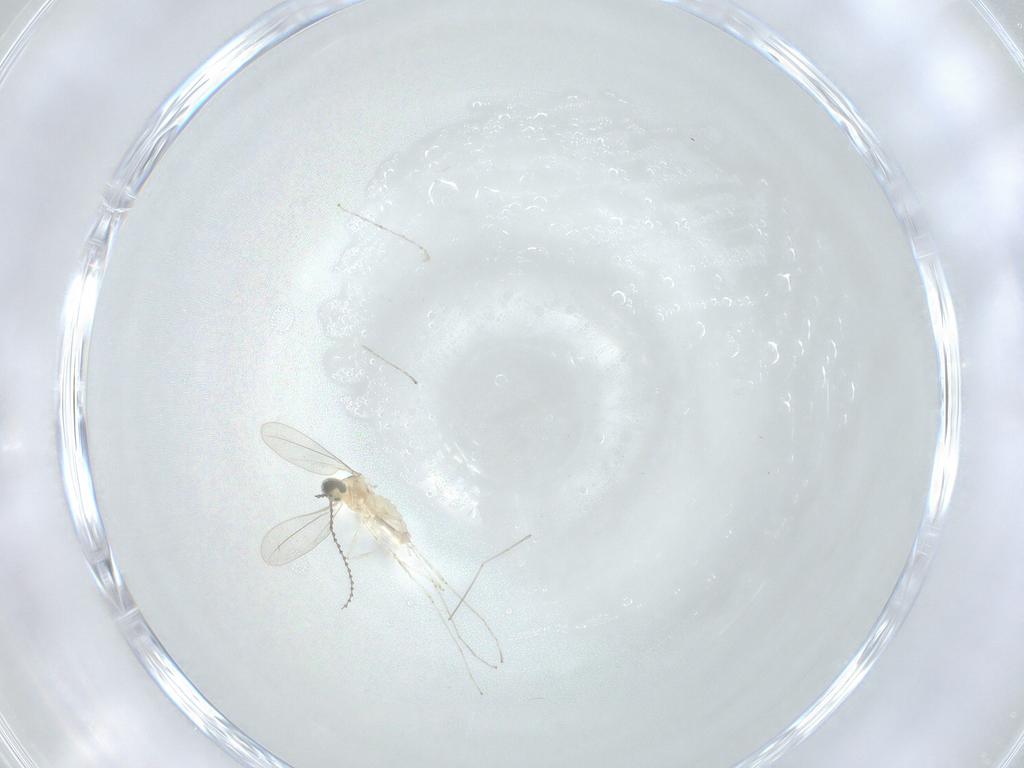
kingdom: Animalia
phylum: Arthropoda
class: Insecta
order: Diptera
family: Cecidomyiidae
